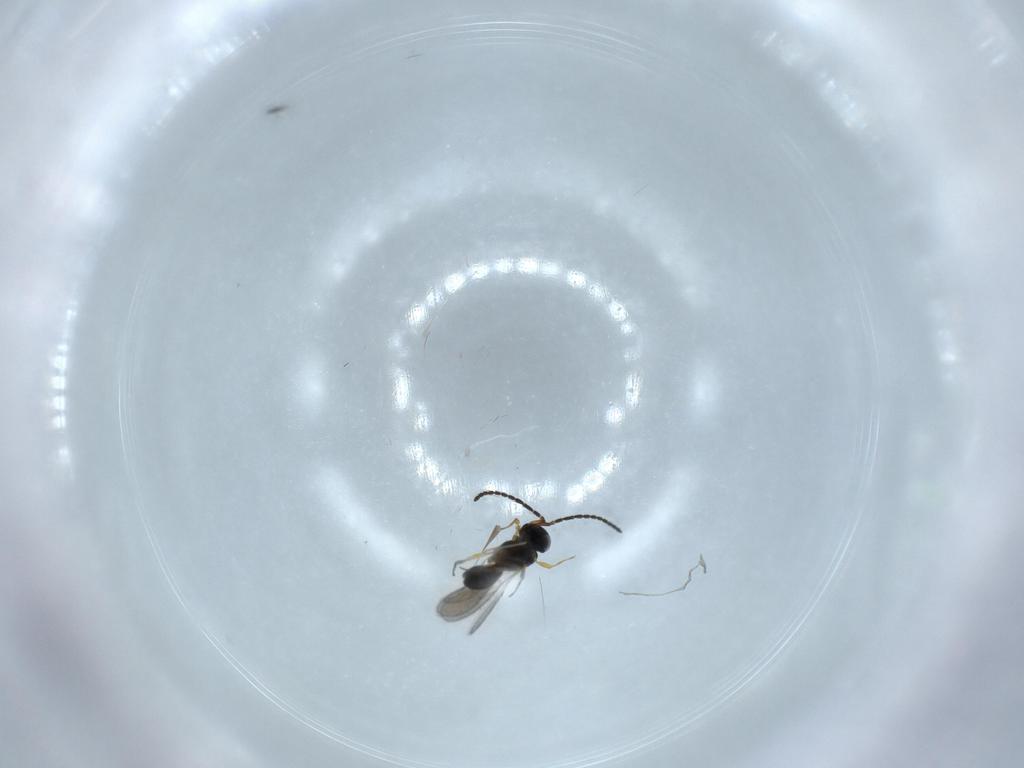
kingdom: Animalia
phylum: Arthropoda
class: Insecta
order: Hymenoptera
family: Scelionidae
